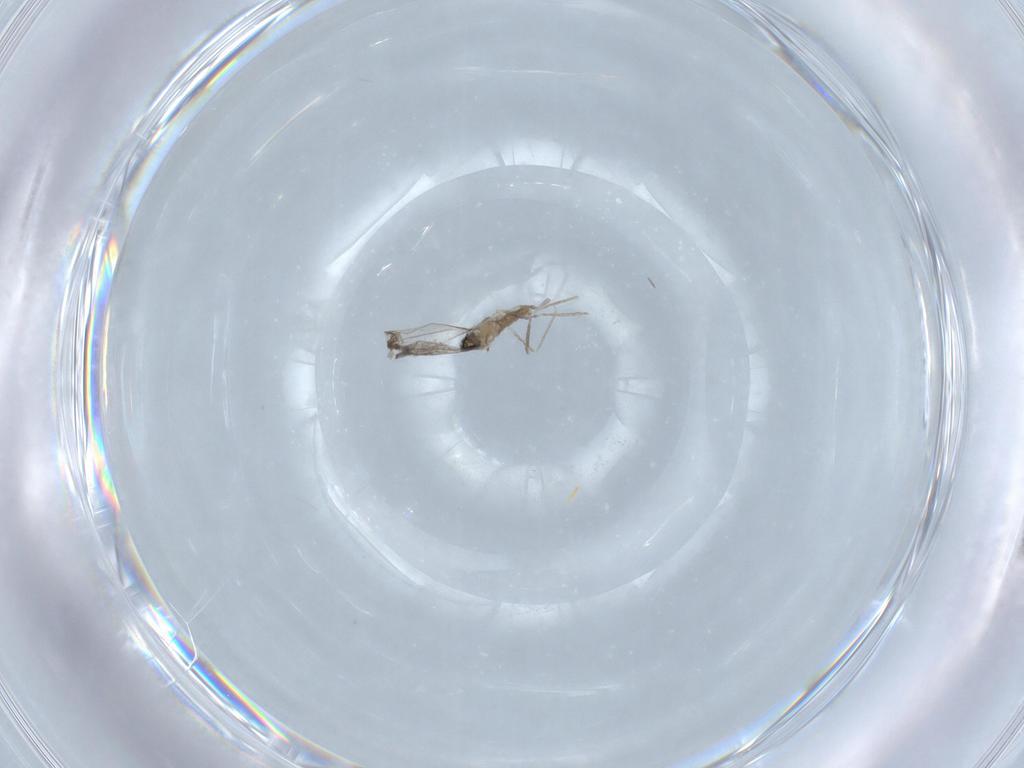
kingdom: Animalia
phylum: Arthropoda
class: Insecta
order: Diptera
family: Cecidomyiidae
